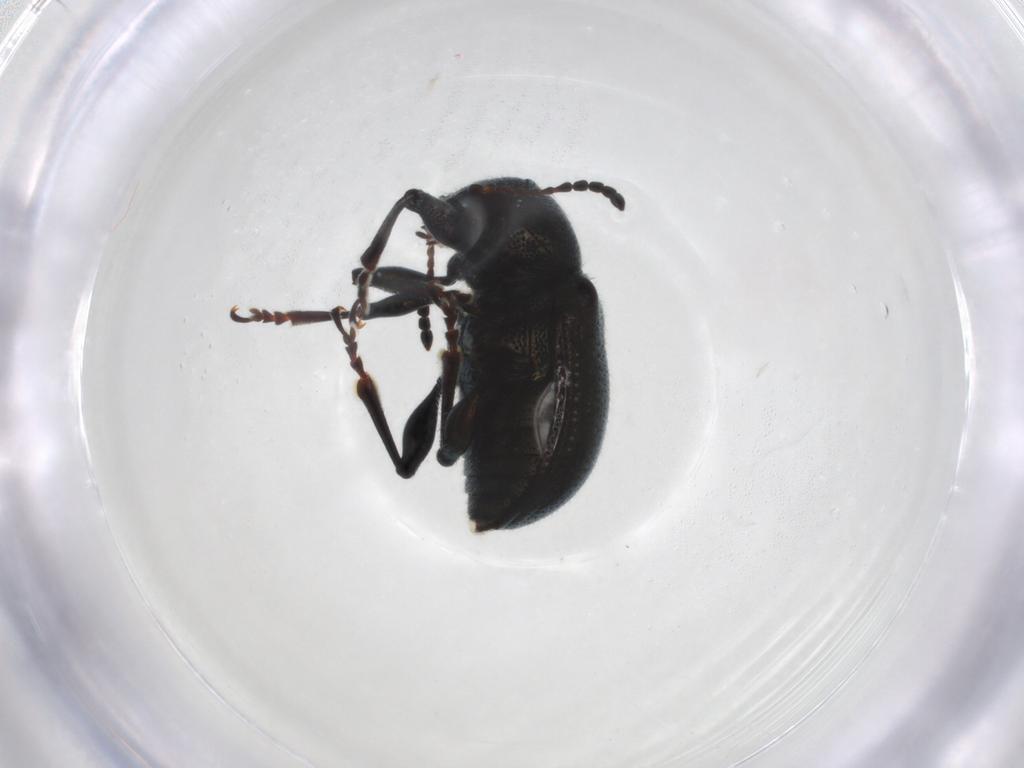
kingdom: Animalia
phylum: Arthropoda
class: Insecta
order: Coleoptera
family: Chrysomelidae
